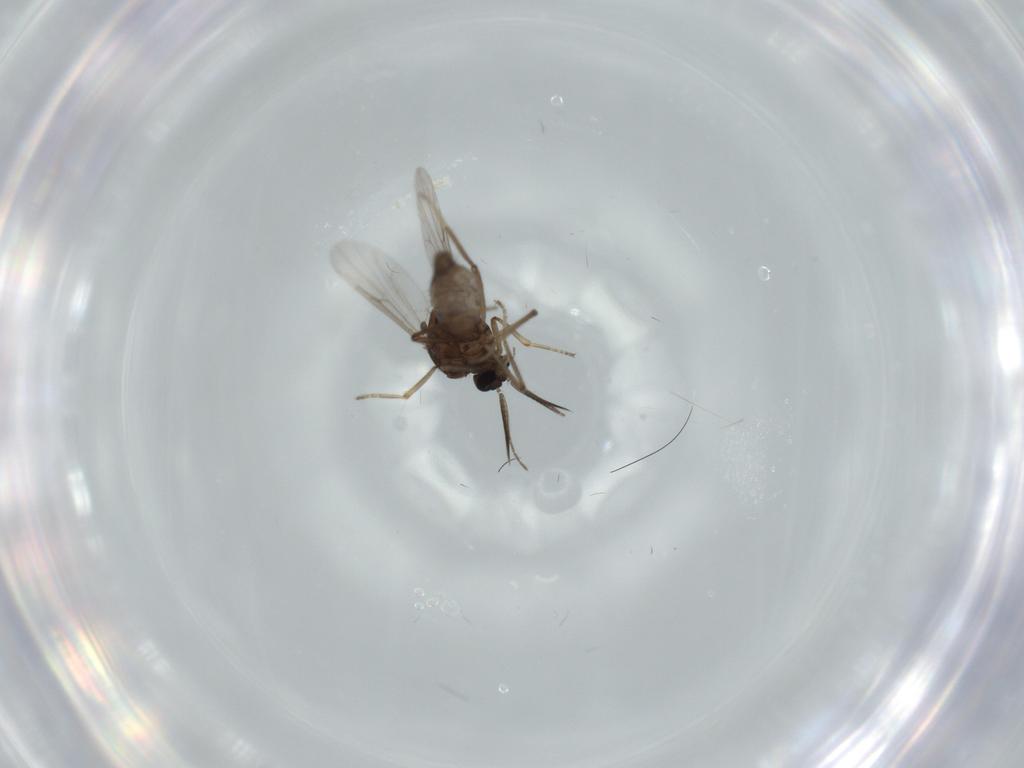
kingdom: Animalia
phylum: Arthropoda
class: Insecta
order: Diptera
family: Ceratopogonidae
